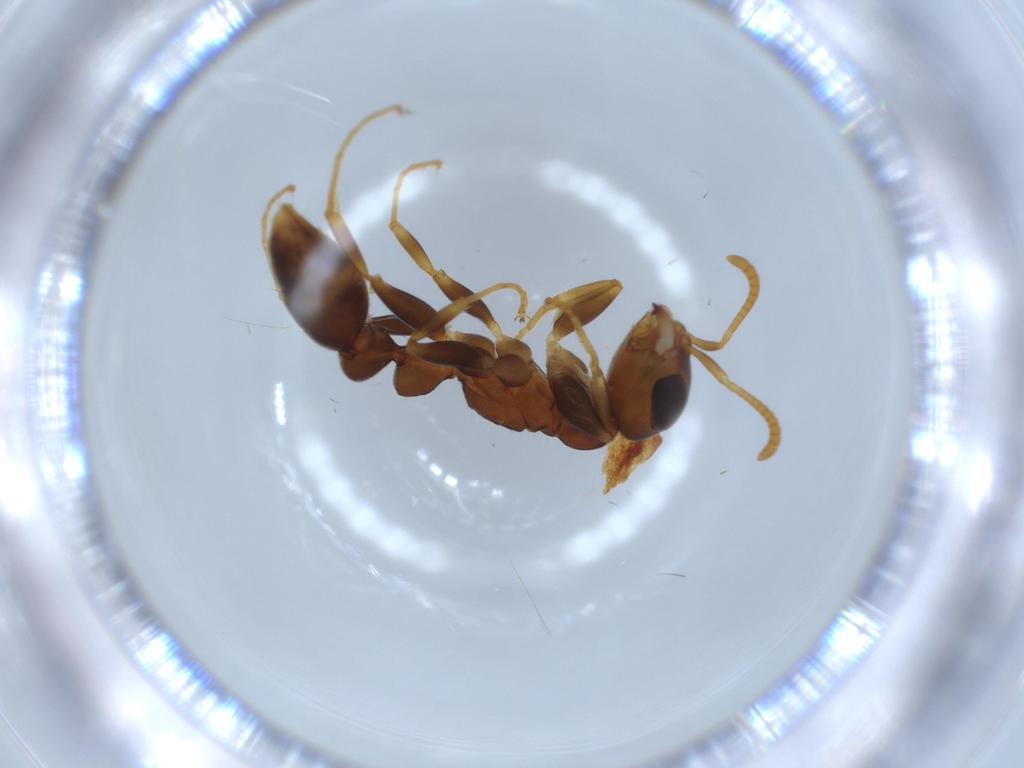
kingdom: Animalia
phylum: Arthropoda
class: Insecta
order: Hymenoptera
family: Formicidae
